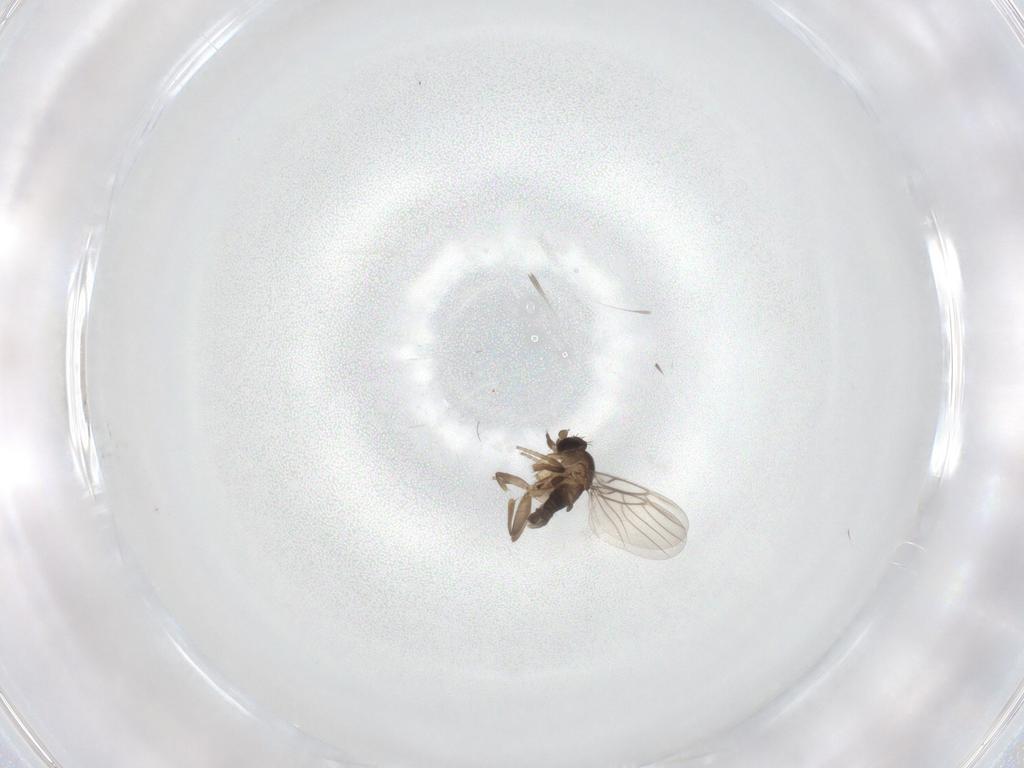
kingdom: Animalia
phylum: Arthropoda
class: Insecta
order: Diptera
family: Phoridae
